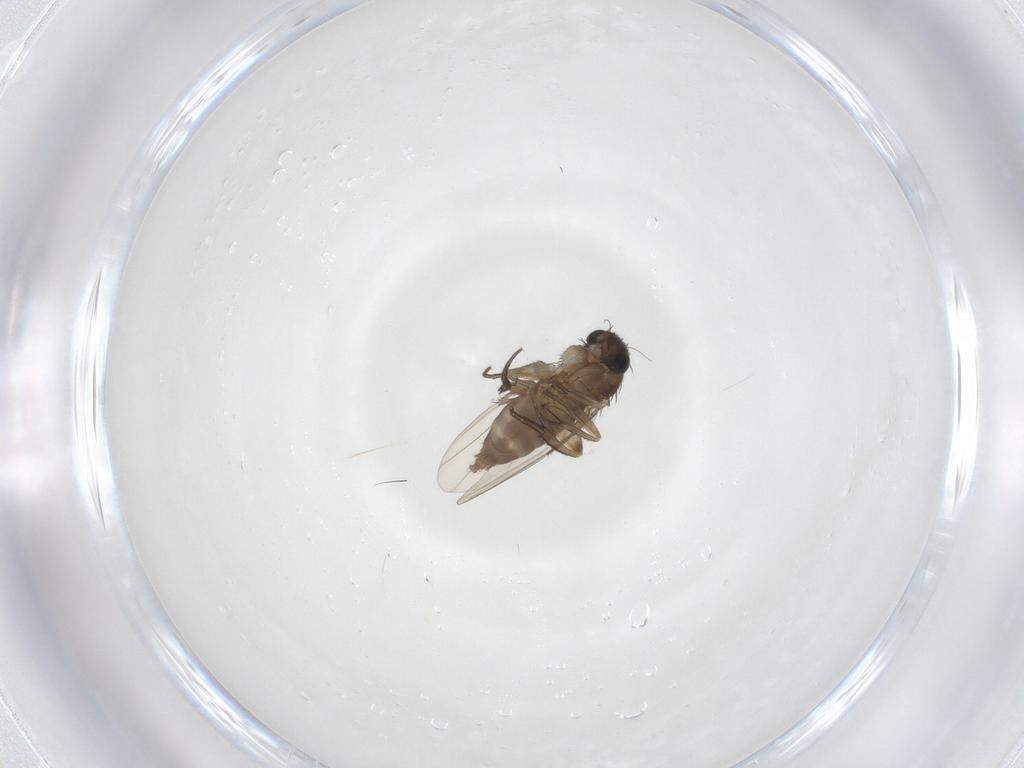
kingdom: Animalia
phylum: Arthropoda
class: Insecta
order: Diptera
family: Phoridae
